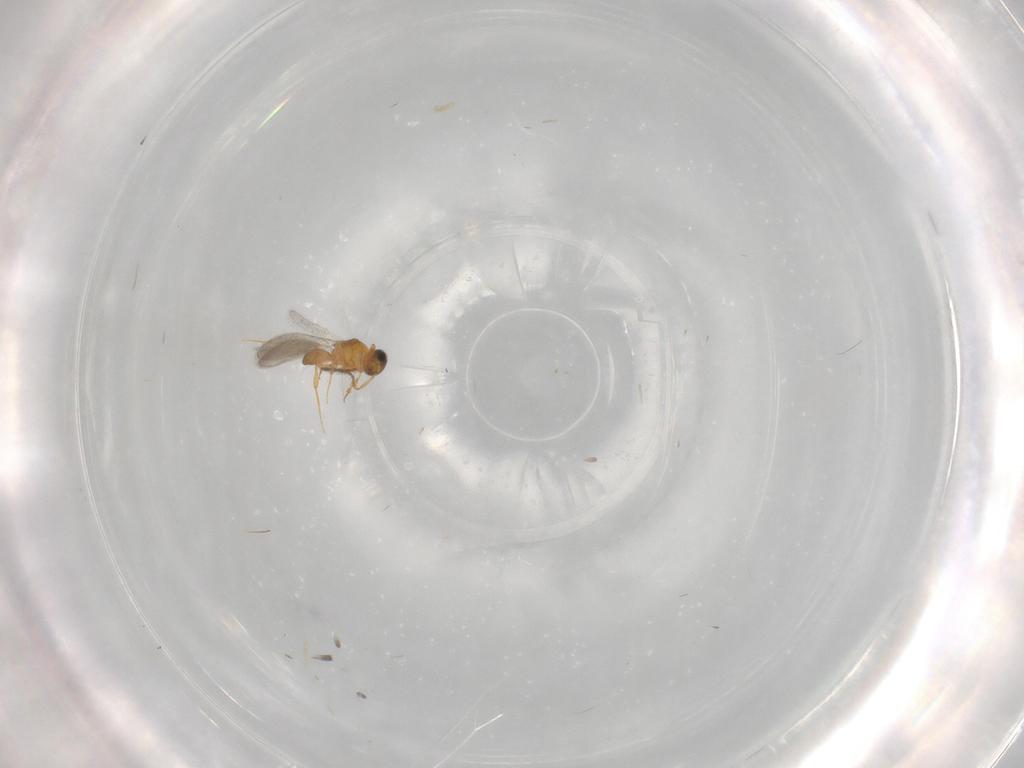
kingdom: Animalia
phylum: Arthropoda
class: Insecta
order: Hymenoptera
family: Platygastridae
